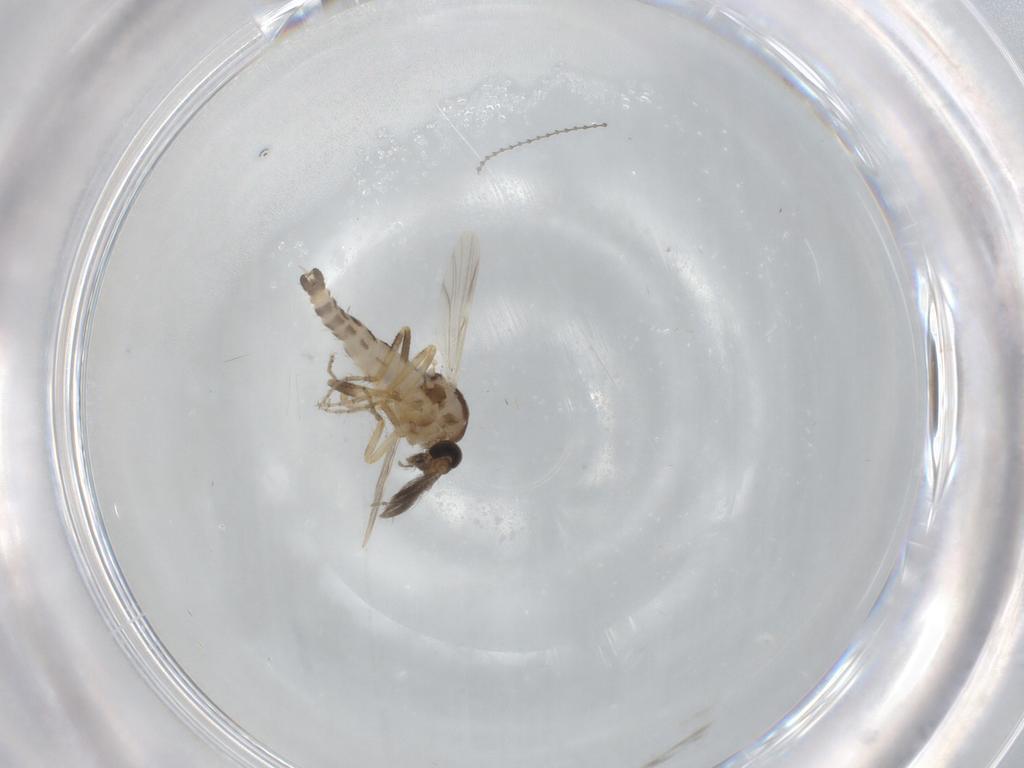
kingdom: Animalia
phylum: Arthropoda
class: Insecta
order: Diptera
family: Ceratopogonidae
